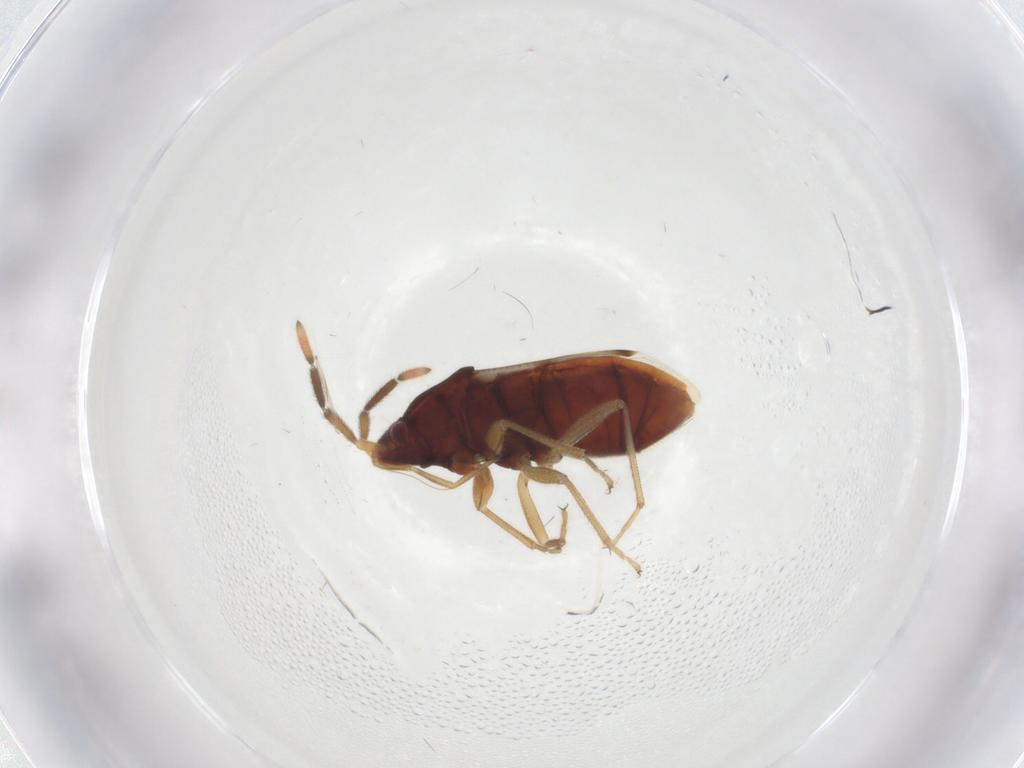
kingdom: Animalia
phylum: Arthropoda
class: Insecta
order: Hemiptera
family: Rhyparochromidae
